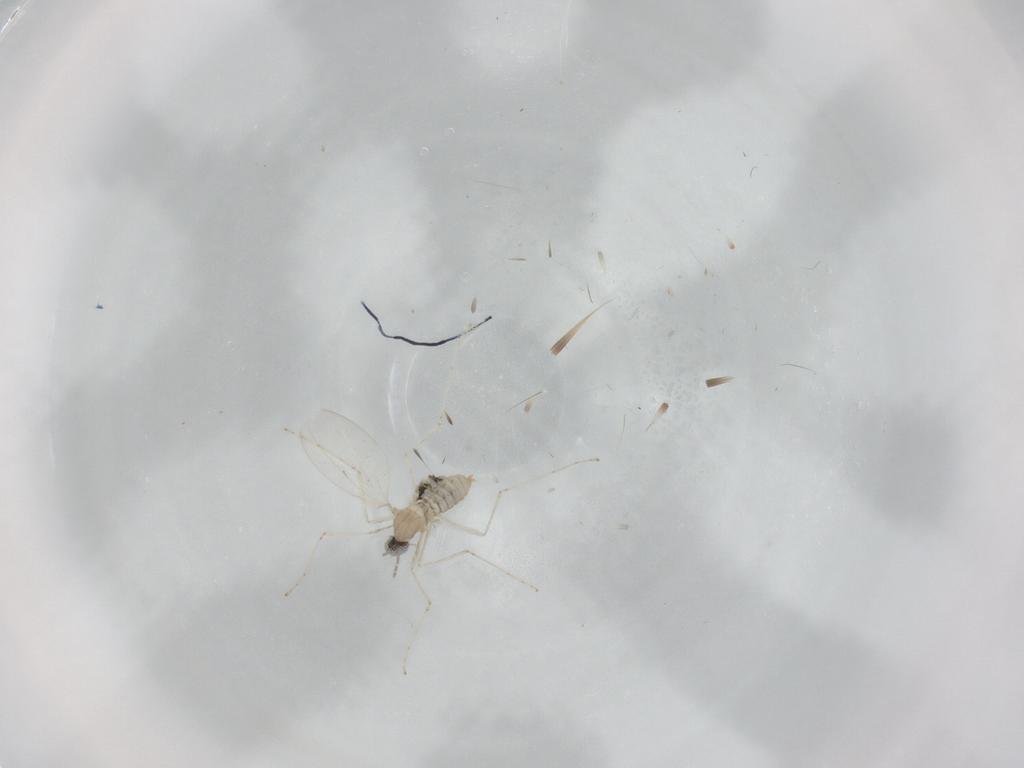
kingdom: Animalia
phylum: Arthropoda
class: Insecta
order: Diptera
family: Cecidomyiidae
